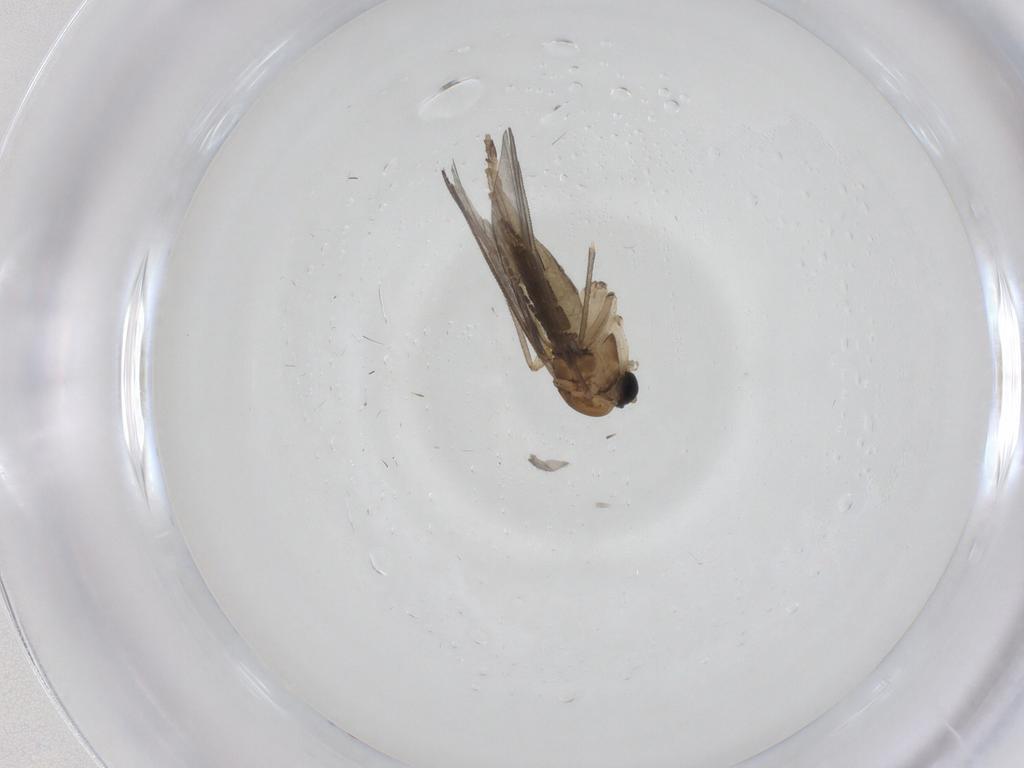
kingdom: Animalia
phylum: Arthropoda
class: Insecta
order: Diptera
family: Sciaridae
